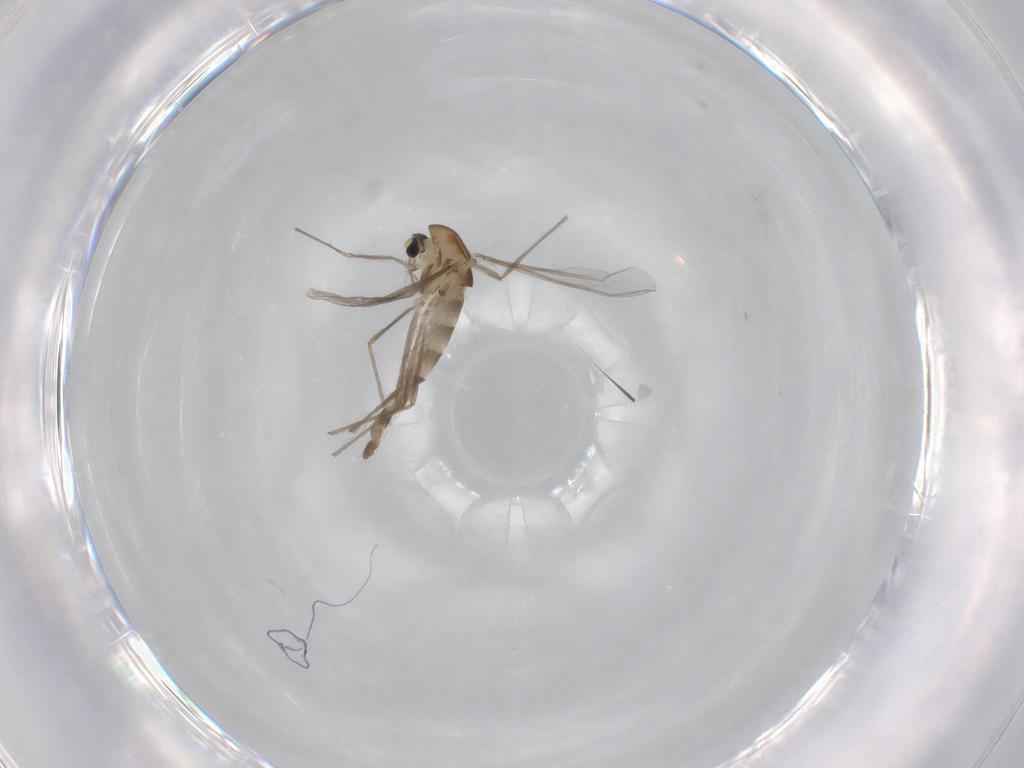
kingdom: Animalia
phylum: Arthropoda
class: Insecta
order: Diptera
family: Chironomidae
